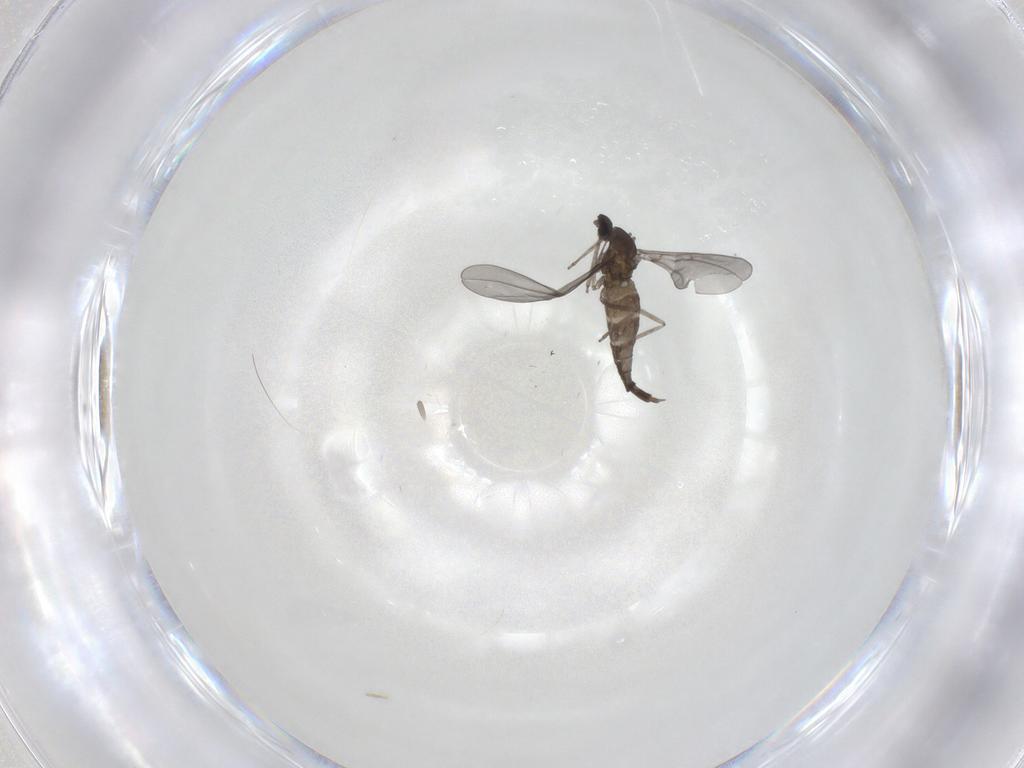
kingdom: Animalia
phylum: Arthropoda
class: Insecta
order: Diptera
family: Cecidomyiidae
